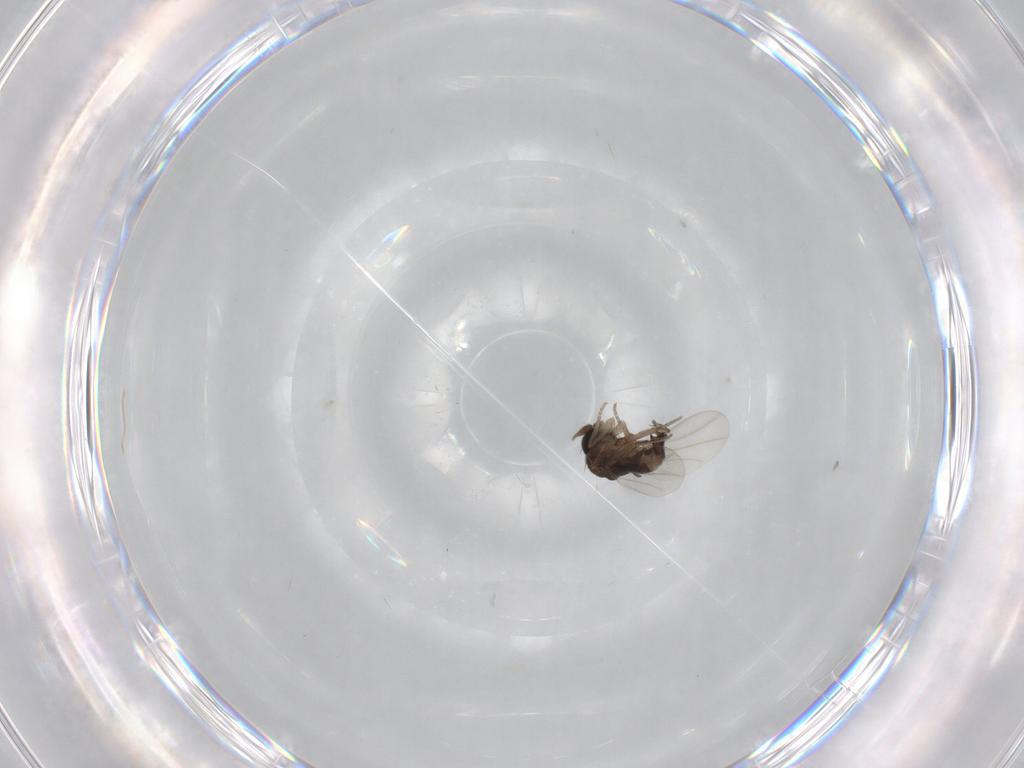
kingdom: Animalia
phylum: Arthropoda
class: Insecta
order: Diptera
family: Phoridae
